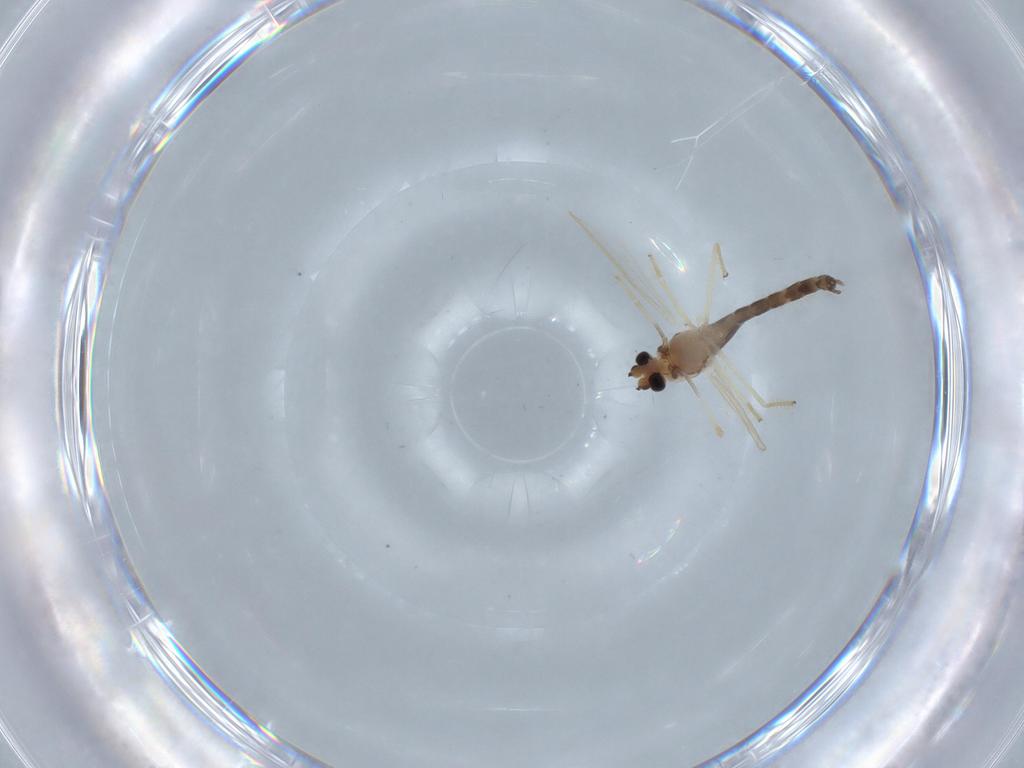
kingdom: Animalia
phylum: Arthropoda
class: Insecta
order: Diptera
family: Chironomidae
